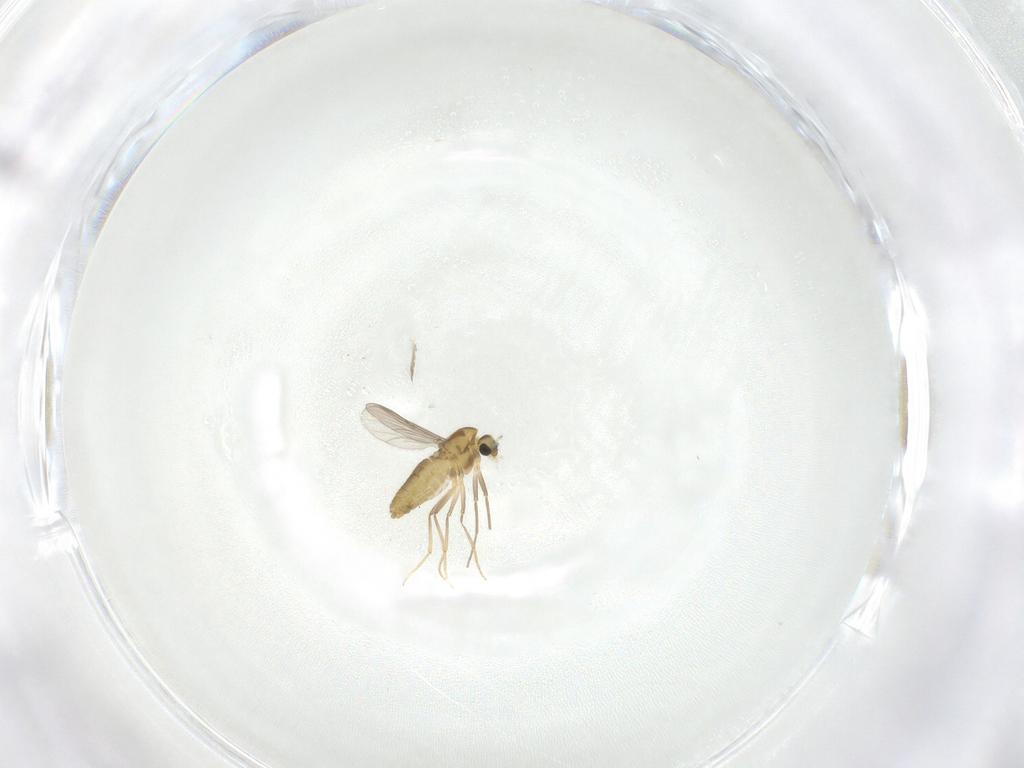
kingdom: Animalia
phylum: Arthropoda
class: Insecta
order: Diptera
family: Chironomidae
